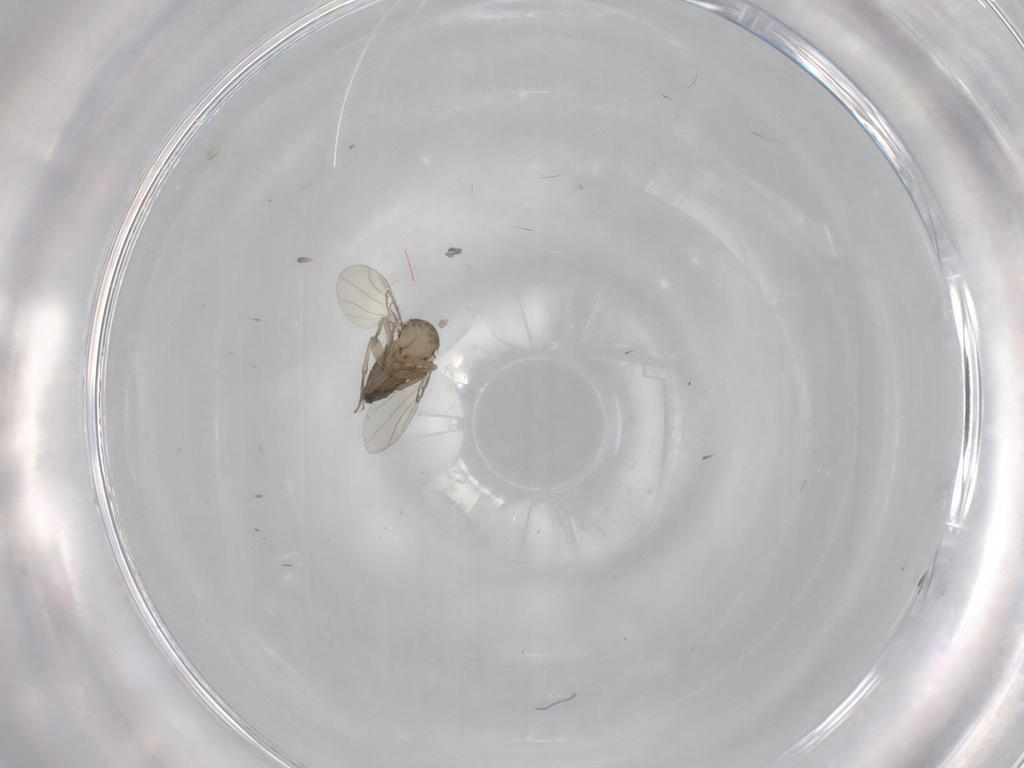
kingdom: Animalia
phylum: Arthropoda
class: Insecta
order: Diptera
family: Phoridae
